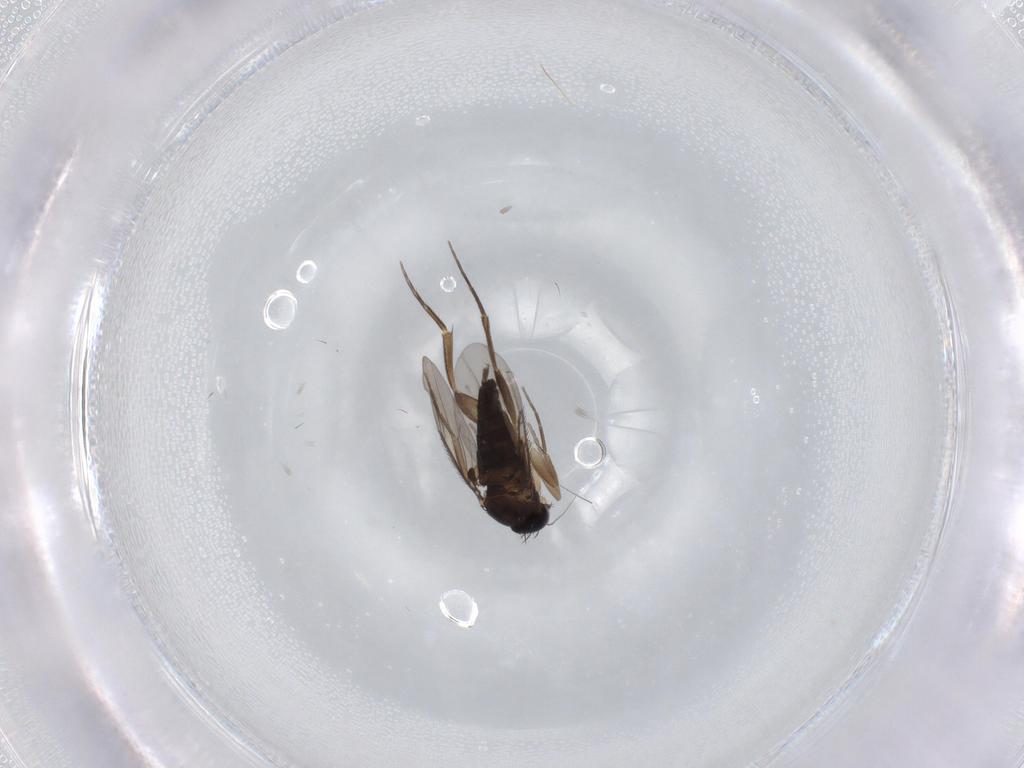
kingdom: Animalia
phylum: Arthropoda
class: Insecta
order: Diptera
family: Phoridae
